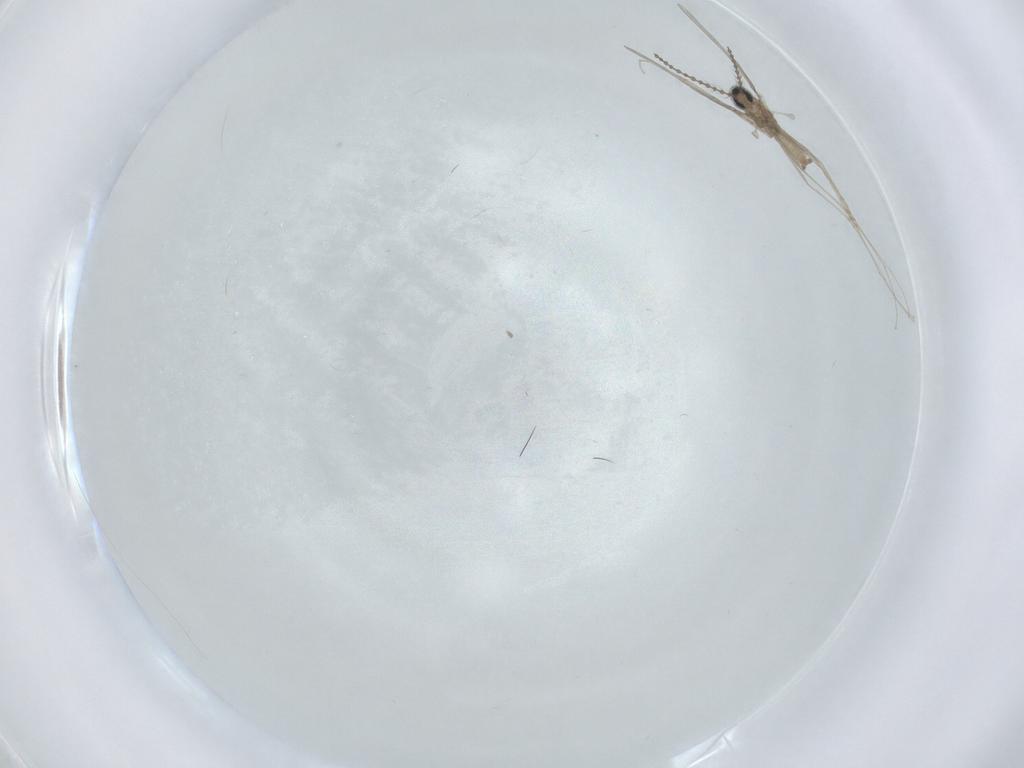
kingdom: Animalia
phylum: Arthropoda
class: Insecta
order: Diptera
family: Cecidomyiidae
